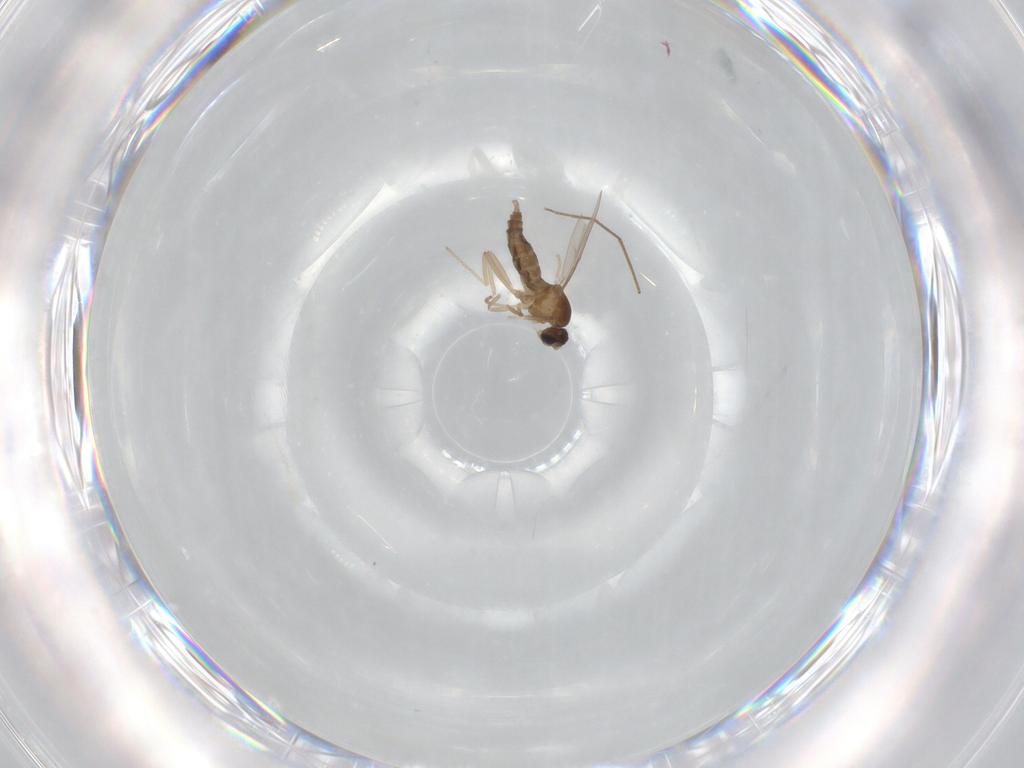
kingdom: Animalia
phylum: Arthropoda
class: Insecta
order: Diptera
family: Cecidomyiidae
